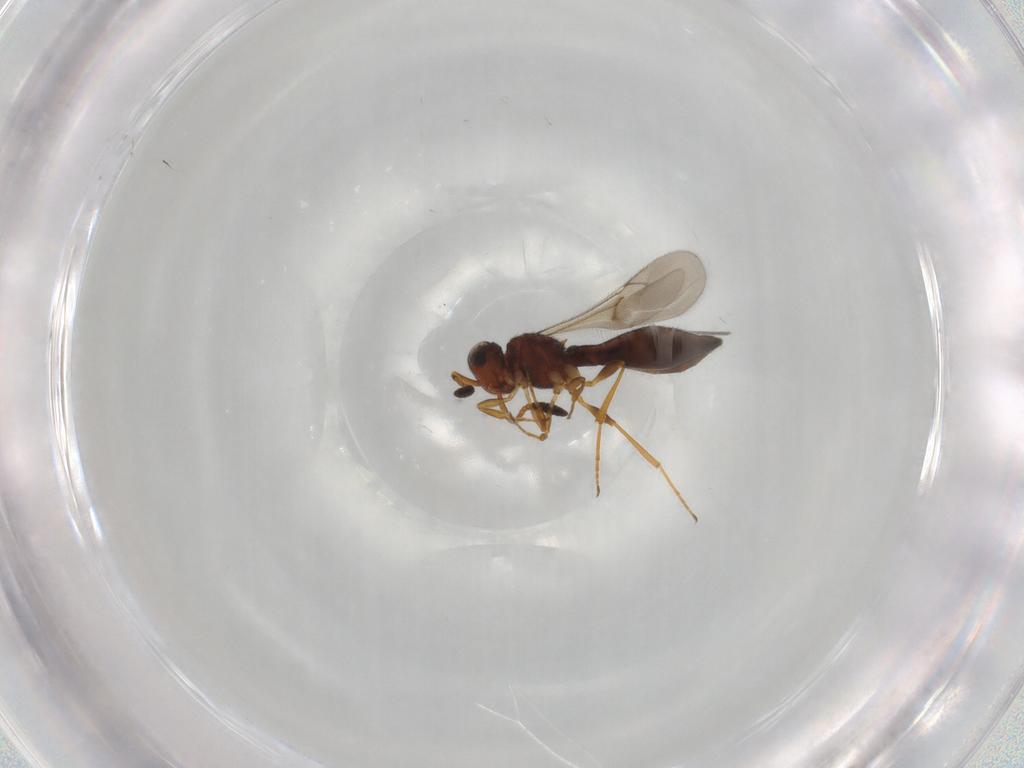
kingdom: Animalia
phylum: Arthropoda
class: Insecta
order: Hymenoptera
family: Scelionidae
